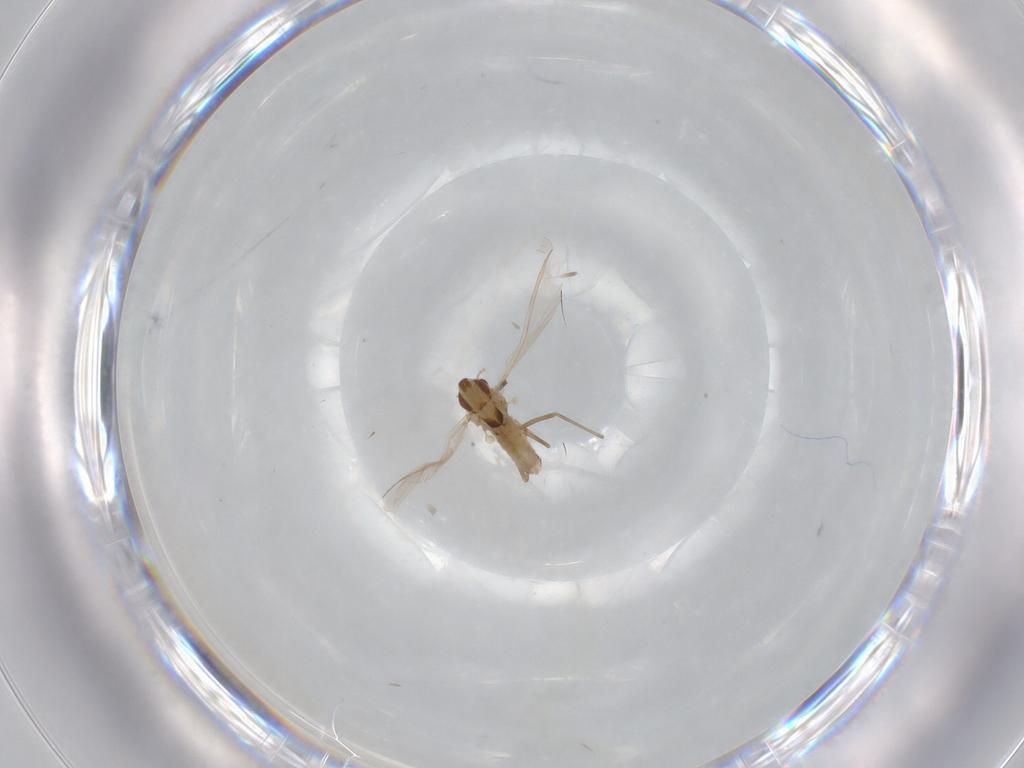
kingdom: Animalia
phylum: Arthropoda
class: Insecta
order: Diptera
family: Chironomidae
